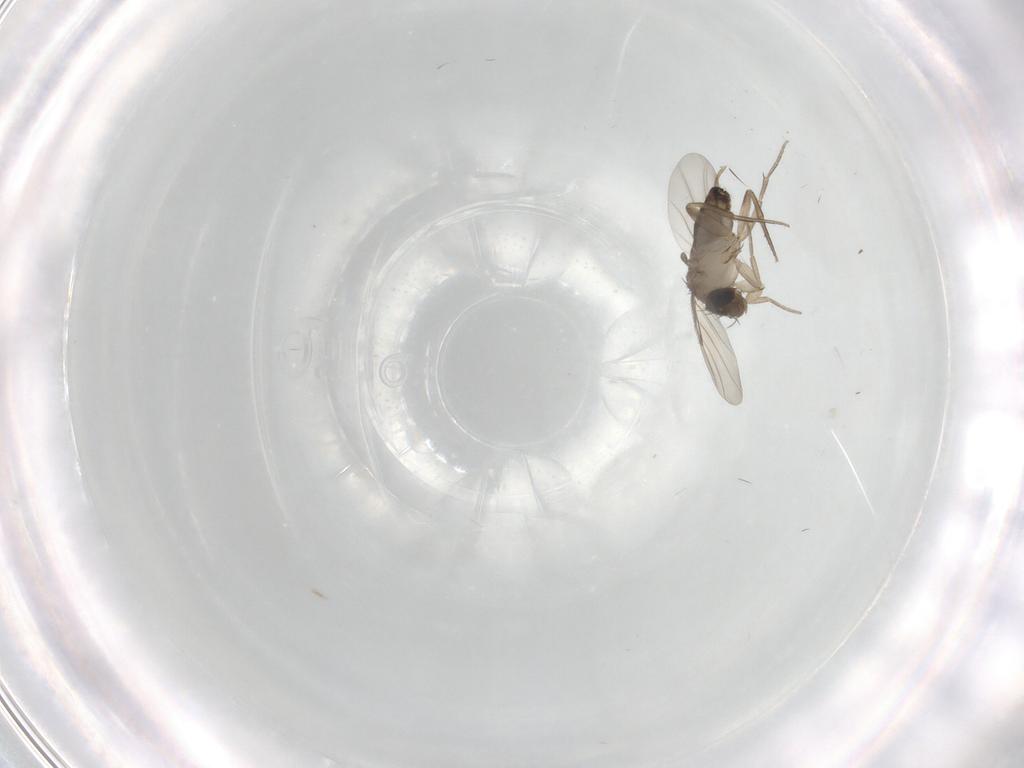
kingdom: Animalia
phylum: Arthropoda
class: Insecta
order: Diptera
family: Phoridae
